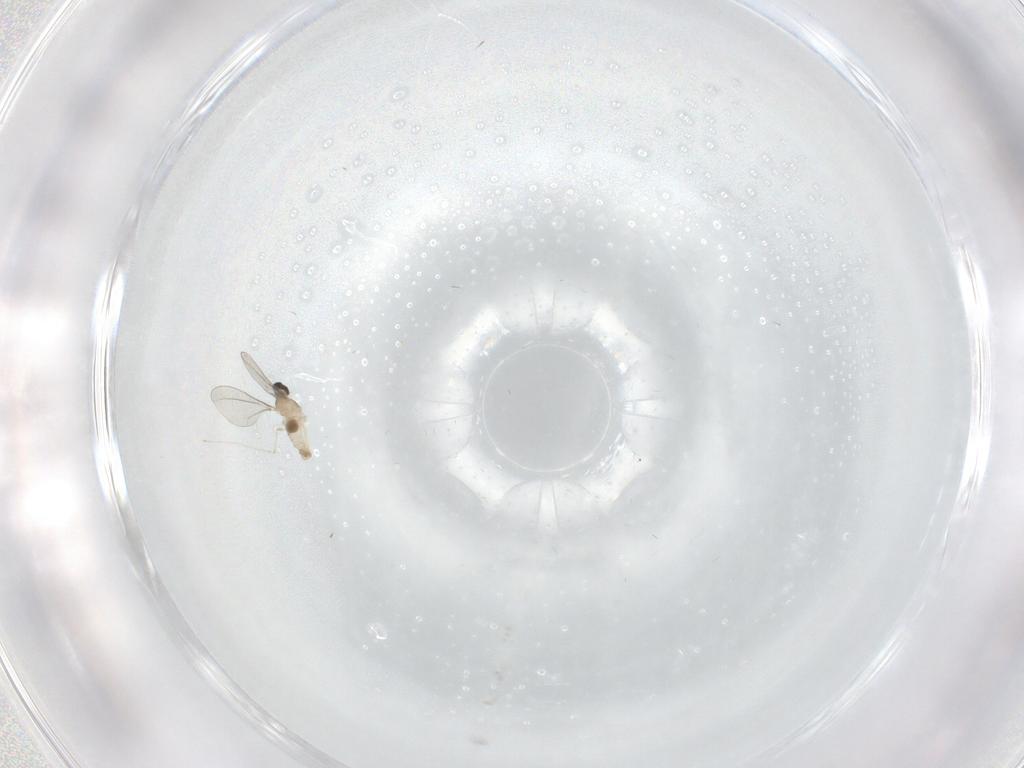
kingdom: Animalia
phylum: Arthropoda
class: Insecta
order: Diptera
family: Cecidomyiidae
